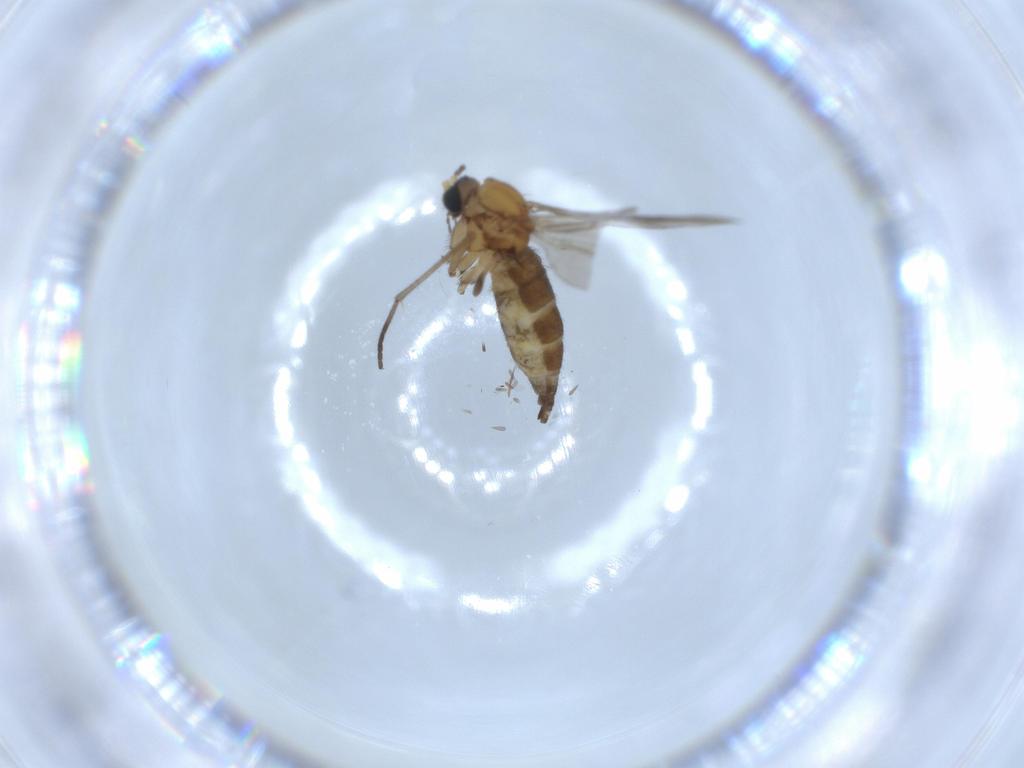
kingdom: Animalia
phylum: Arthropoda
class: Insecta
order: Diptera
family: Sciaridae
